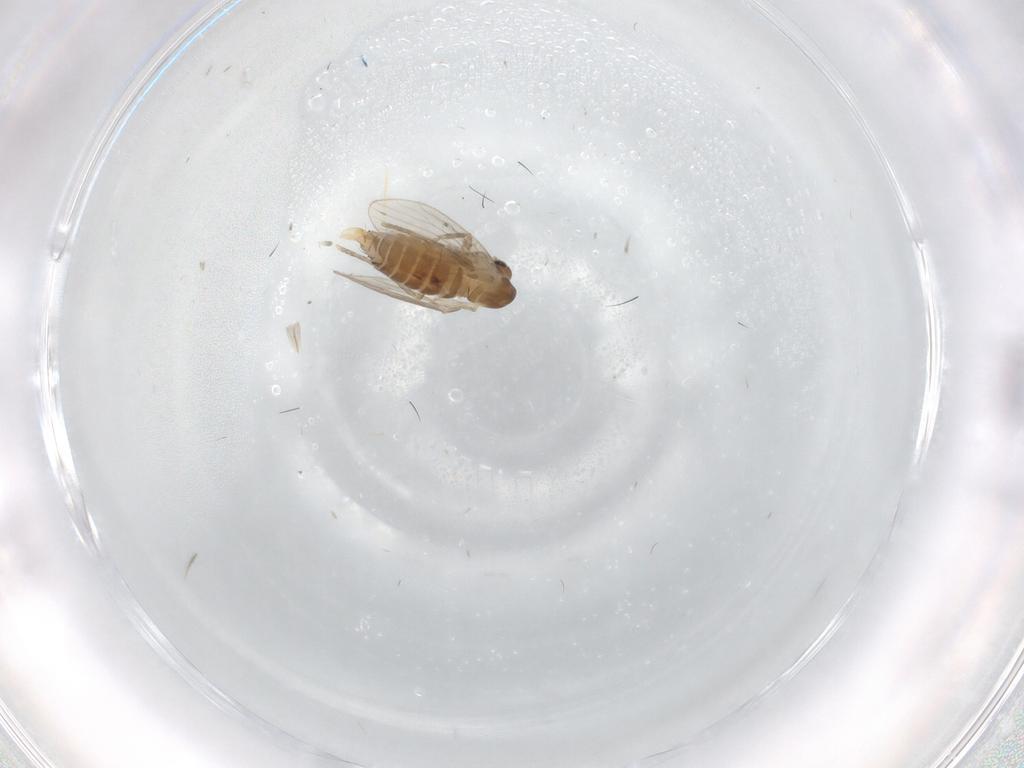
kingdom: Animalia
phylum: Arthropoda
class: Insecta
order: Diptera
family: Psychodidae
